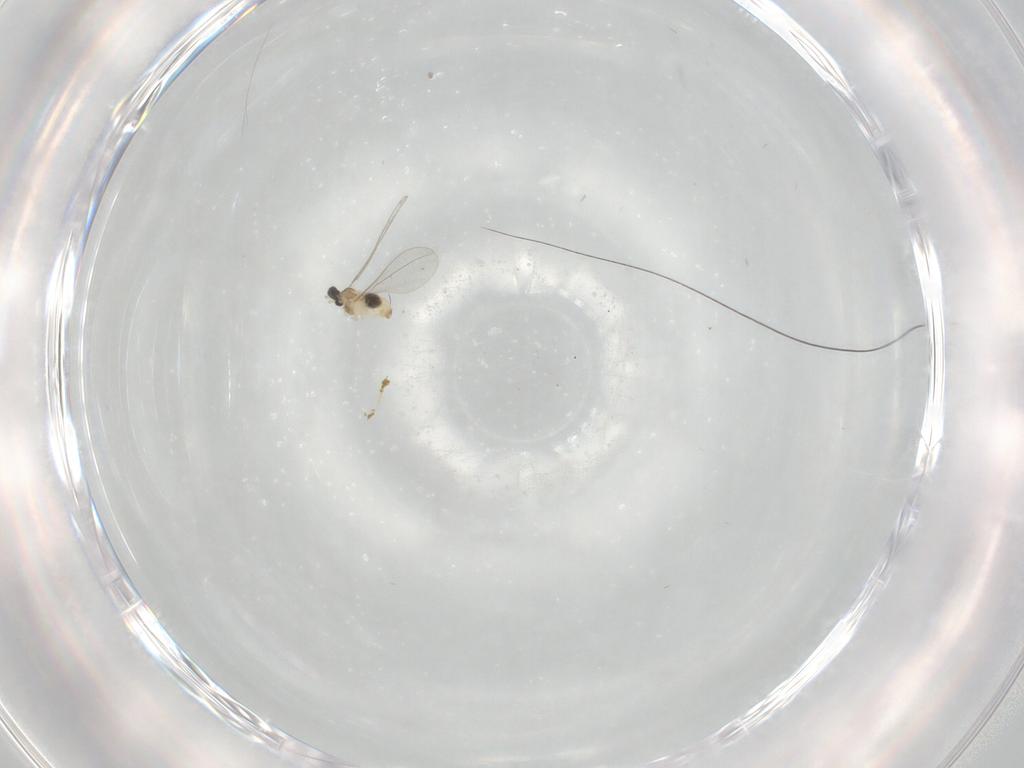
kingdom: Animalia
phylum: Arthropoda
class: Insecta
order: Diptera
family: Cecidomyiidae
